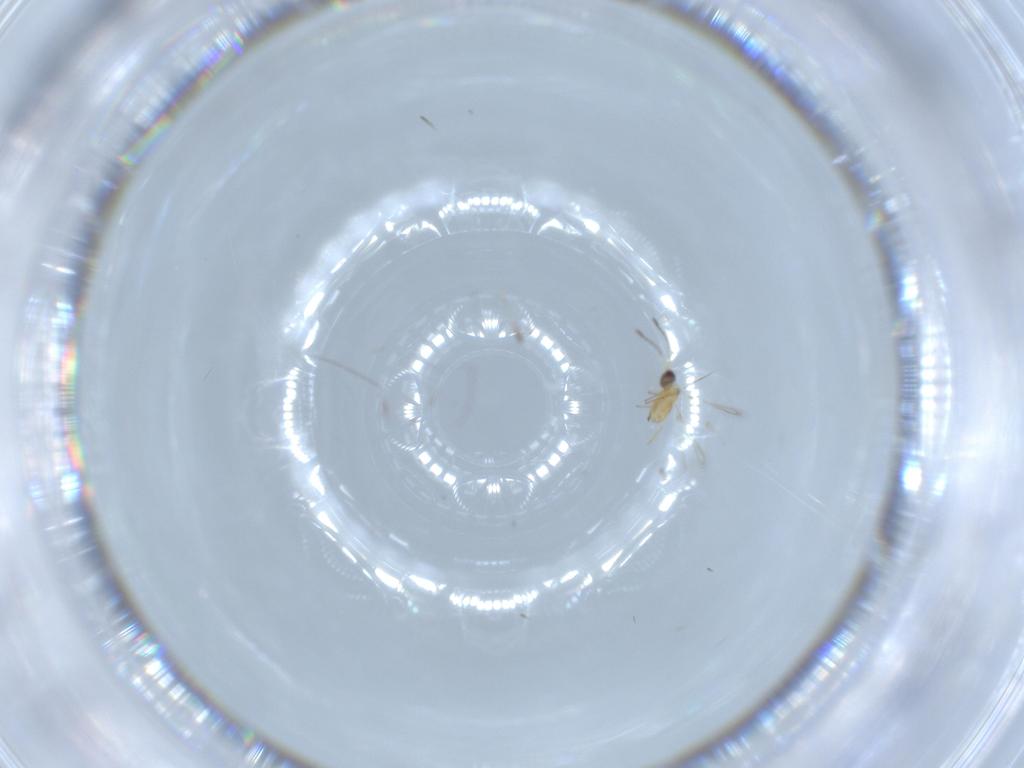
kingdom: Animalia
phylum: Arthropoda
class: Insecta
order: Hymenoptera
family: Mymaridae
